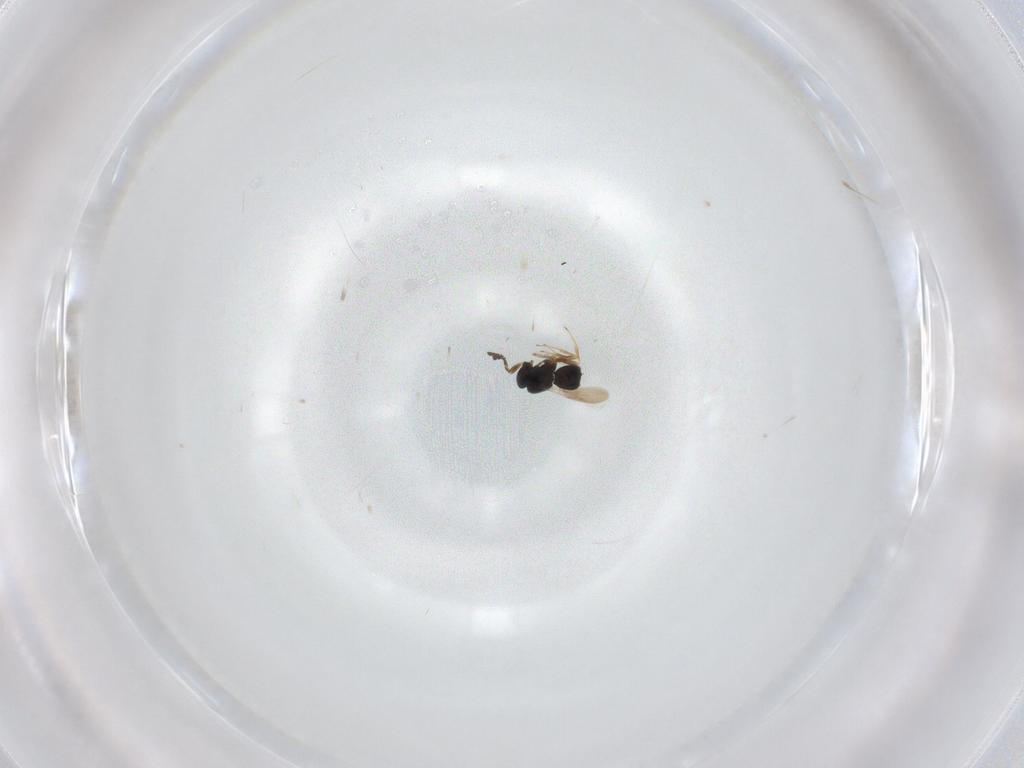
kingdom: Animalia
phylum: Arthropoda
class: Insecta
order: Hymenoptera
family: Scelionidae
